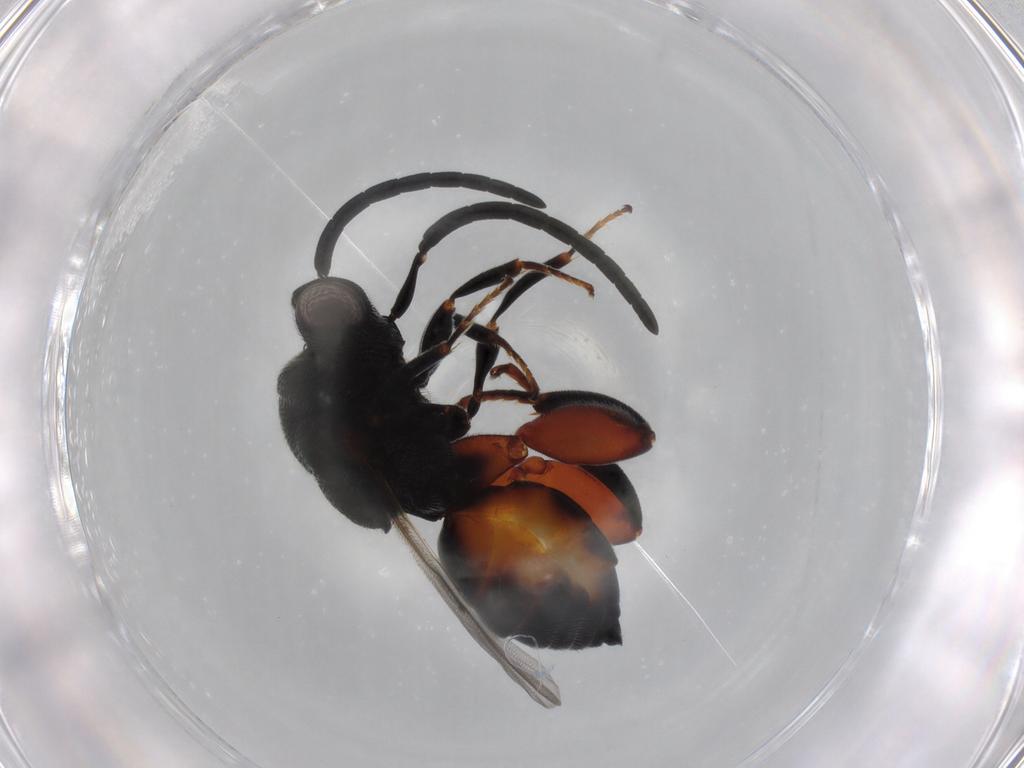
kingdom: Animalia
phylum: Arthropoda
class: Insecta
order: Hymenoptera
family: Chalcididae
